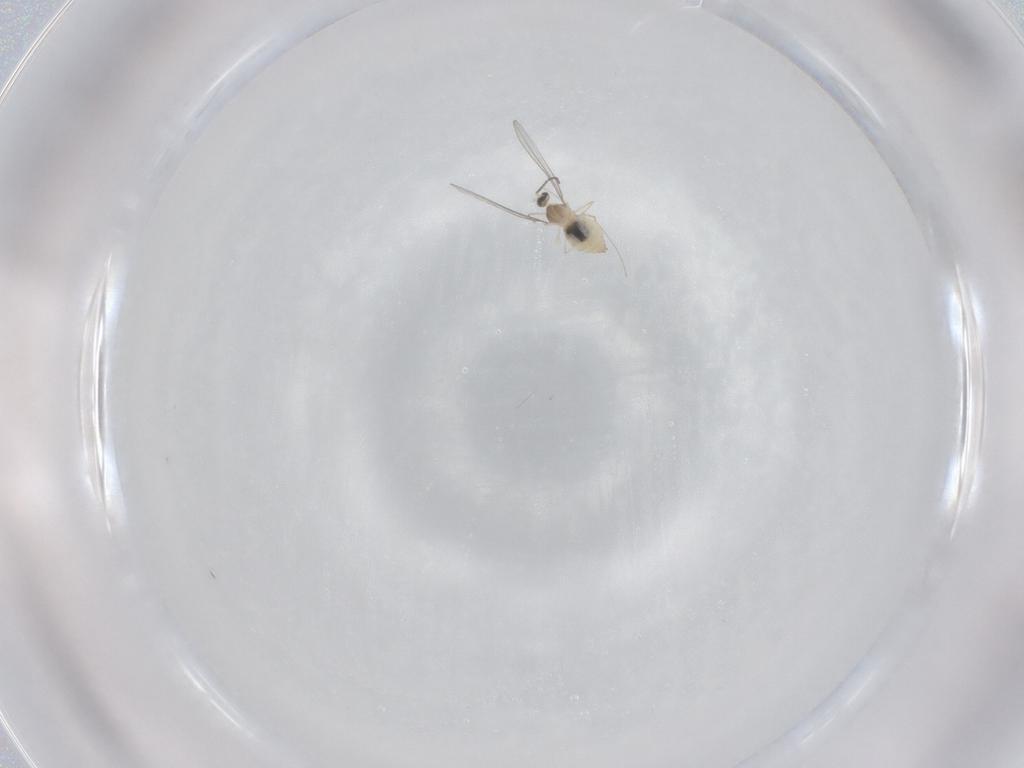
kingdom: Animalia
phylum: Arthropoda
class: Insecta
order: Diptera
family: Cecidomyiidae
